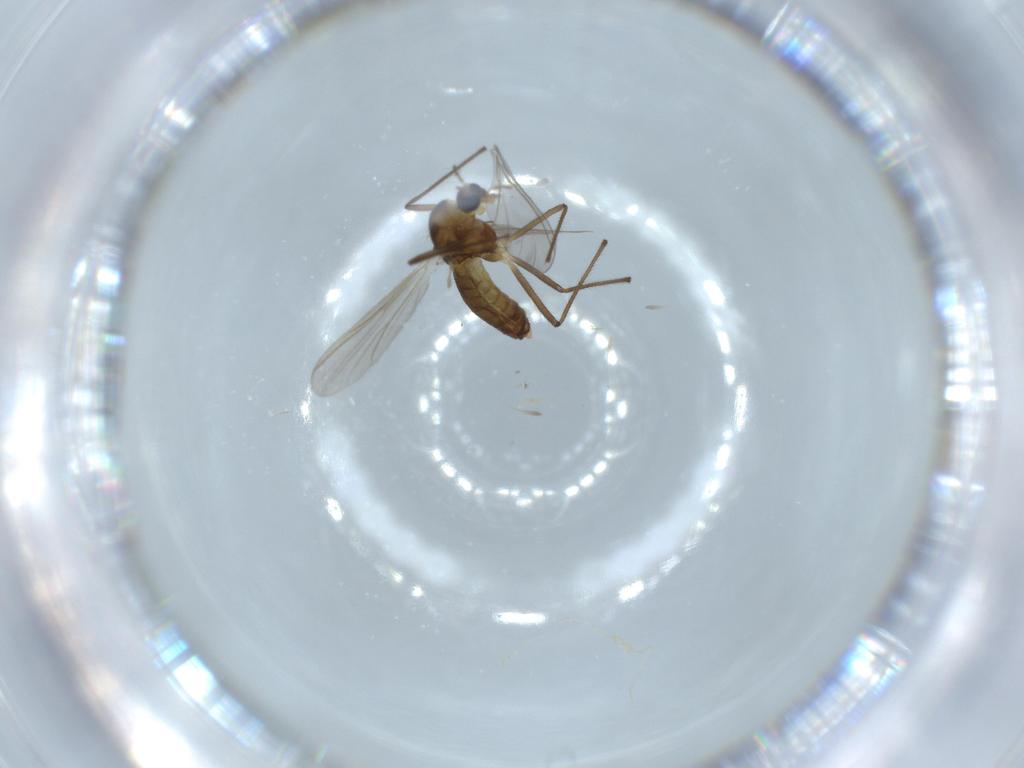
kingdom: Animalia
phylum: Arthropoda
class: Insecta
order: Diptera
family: Chironomidae
